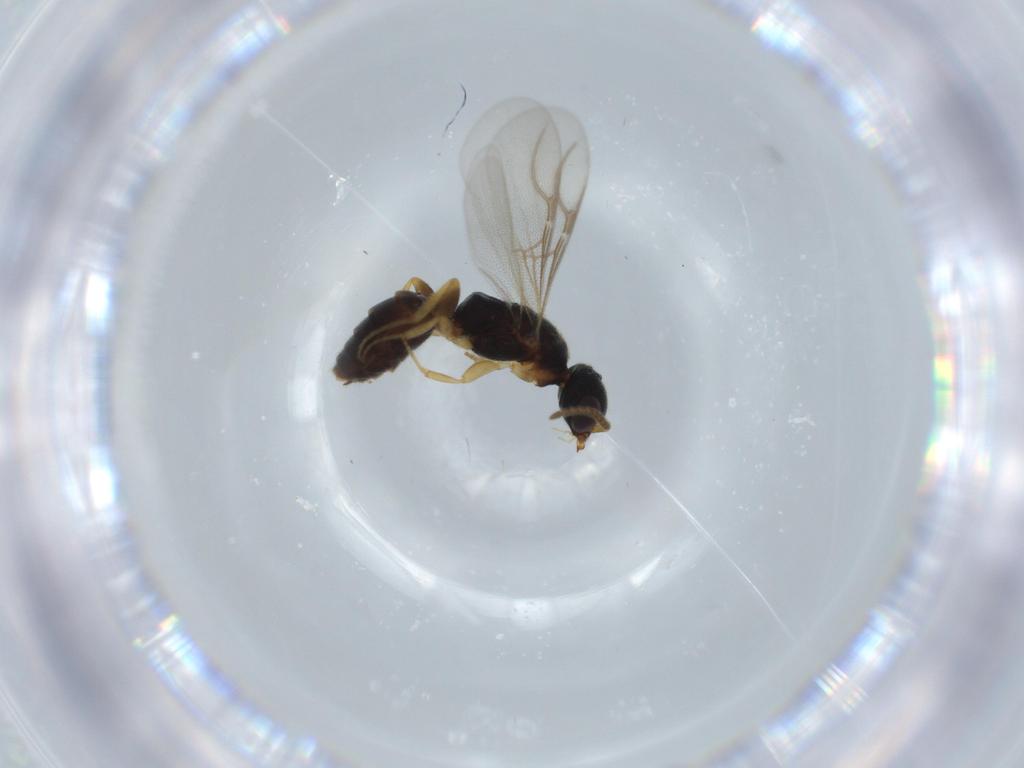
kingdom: Animalia
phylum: Arthropoda
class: Insecta
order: Hymenoptera
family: Bethylidae
